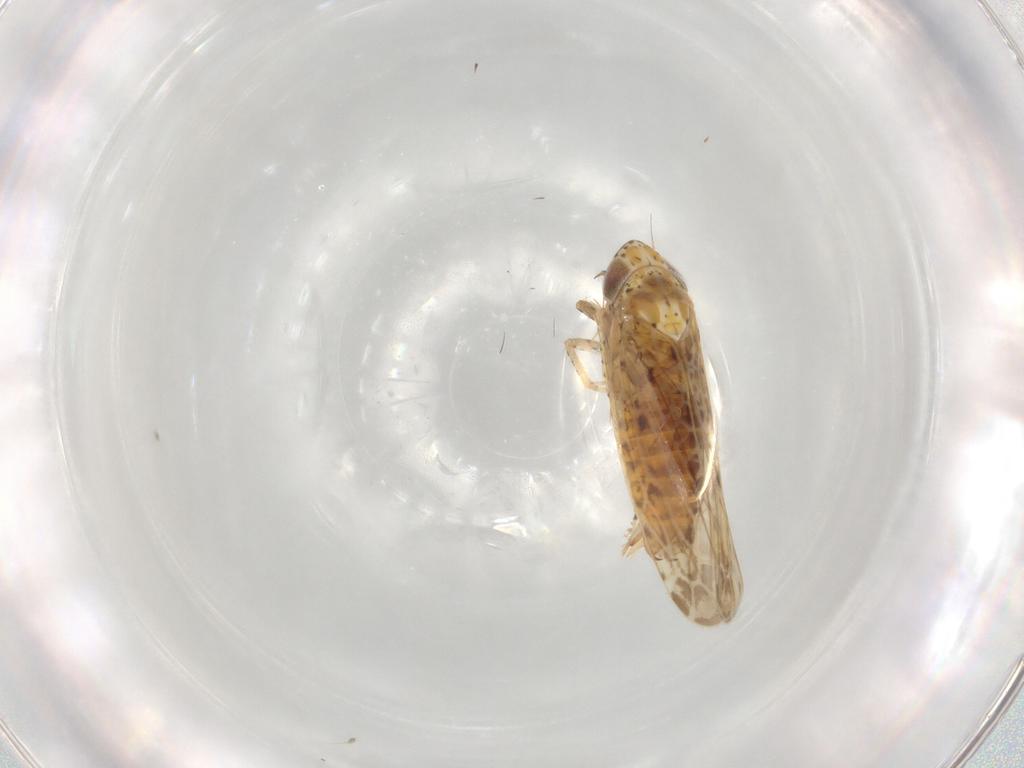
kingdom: Animalia
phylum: Arthropoda
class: Insecta
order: Hemiptera
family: Cicadellidae
